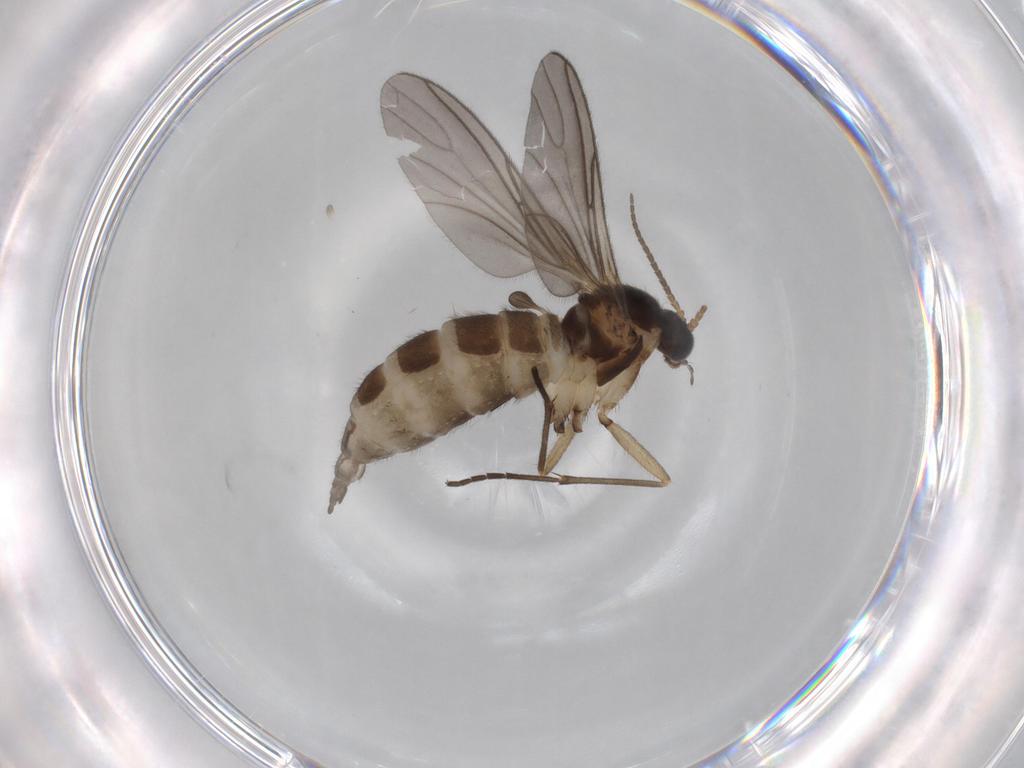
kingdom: Animalia
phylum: Arthropoda
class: Insecta
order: Diptera
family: Sciaridae
